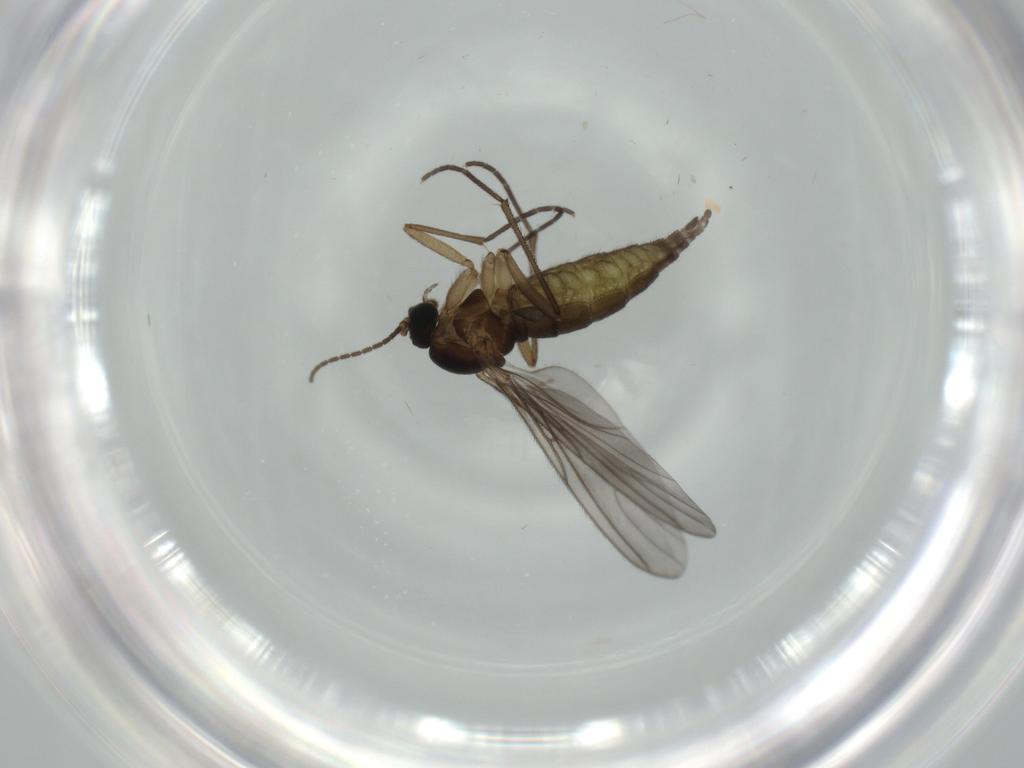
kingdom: Animalia
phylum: Arthropoda
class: Insecta
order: Diptera
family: Sciaridae
